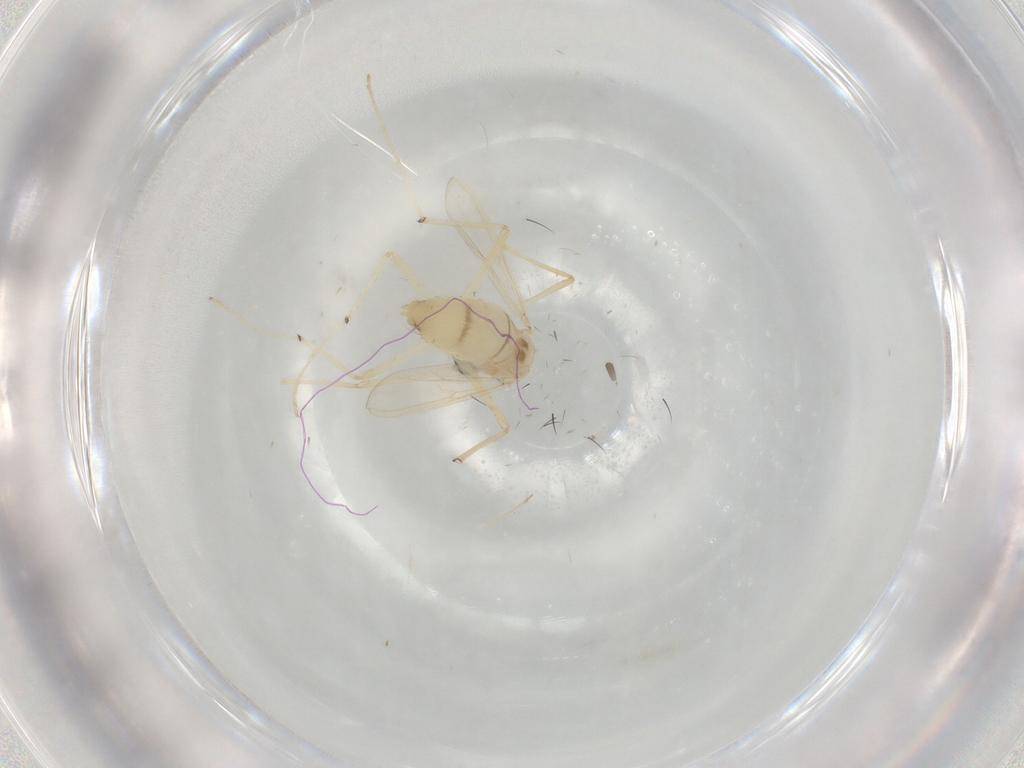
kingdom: Animalia
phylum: Arthropoda
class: Insecta
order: Diptera
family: Chironomidae
